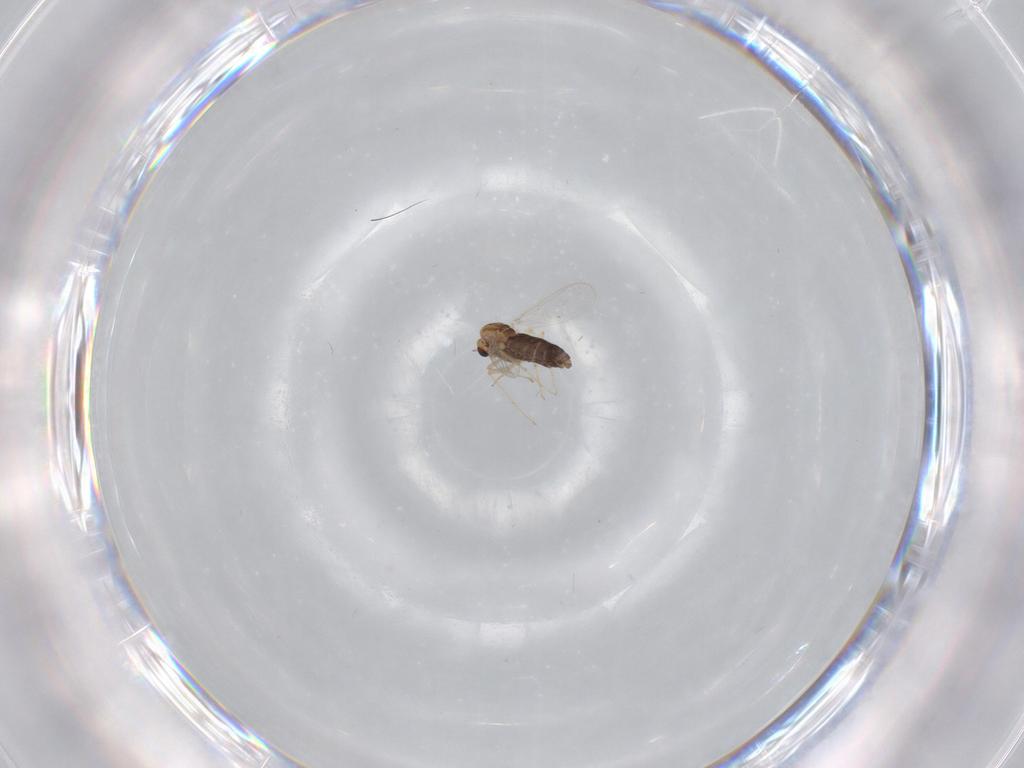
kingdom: Animalia
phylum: Arthropoda
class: Insecta
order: Diptera
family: Chironomidae
